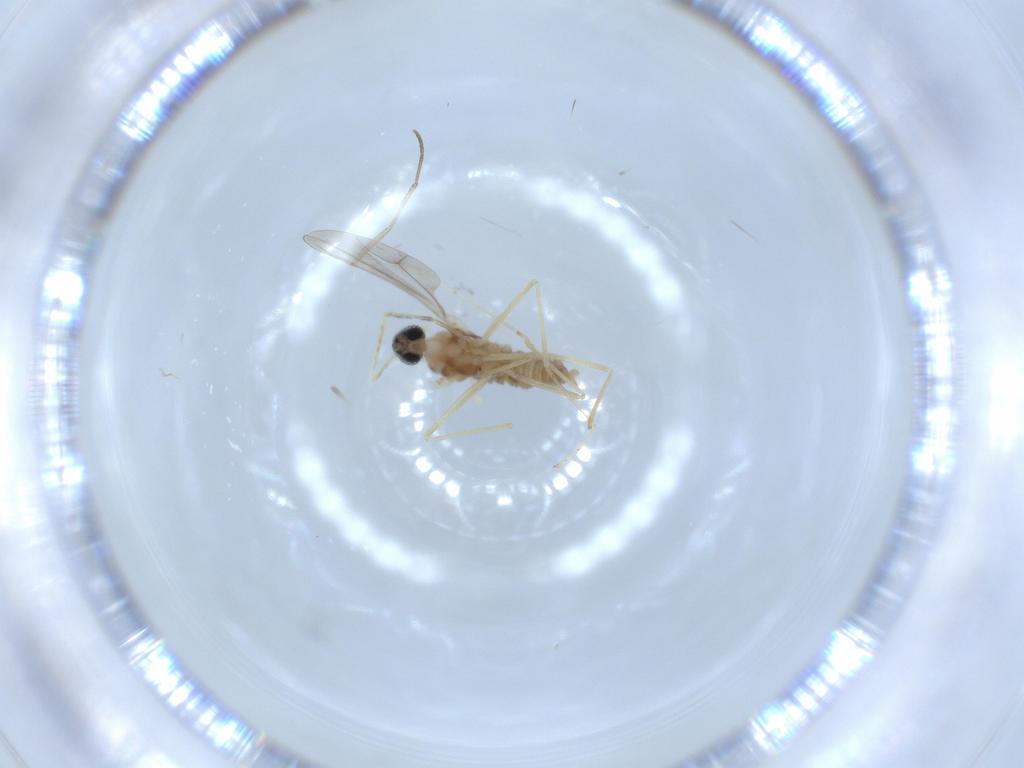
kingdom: Animalia
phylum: Arthropoda
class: Insecta
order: Diptera
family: Cecidomyiidae
